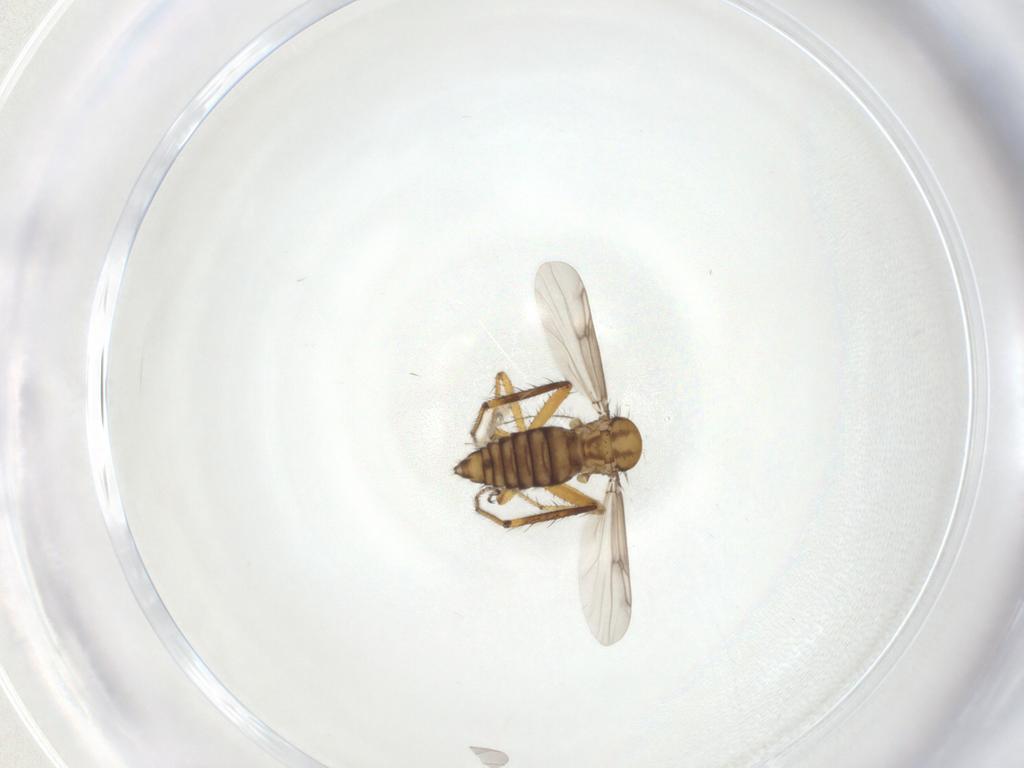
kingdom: Animalia
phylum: Arthropoda
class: Insecta
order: Diptera
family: Ceratopogonidae
